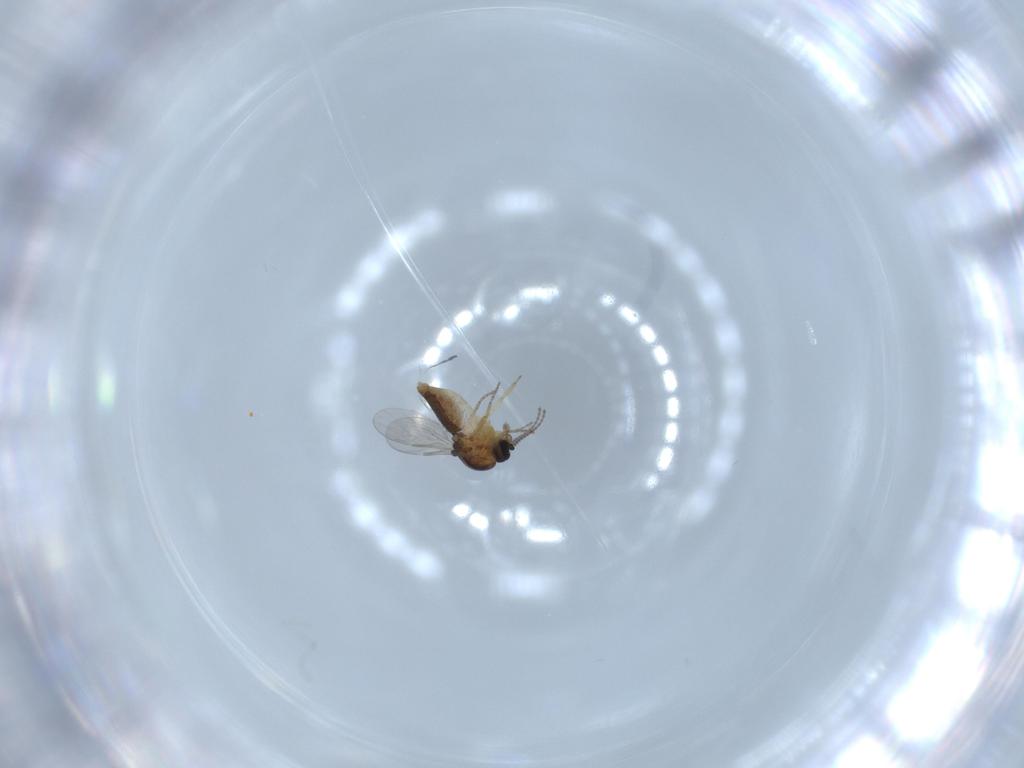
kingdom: Animalia
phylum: Arthropoda
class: Insecta
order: Diptera
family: Ceratopogonidae
